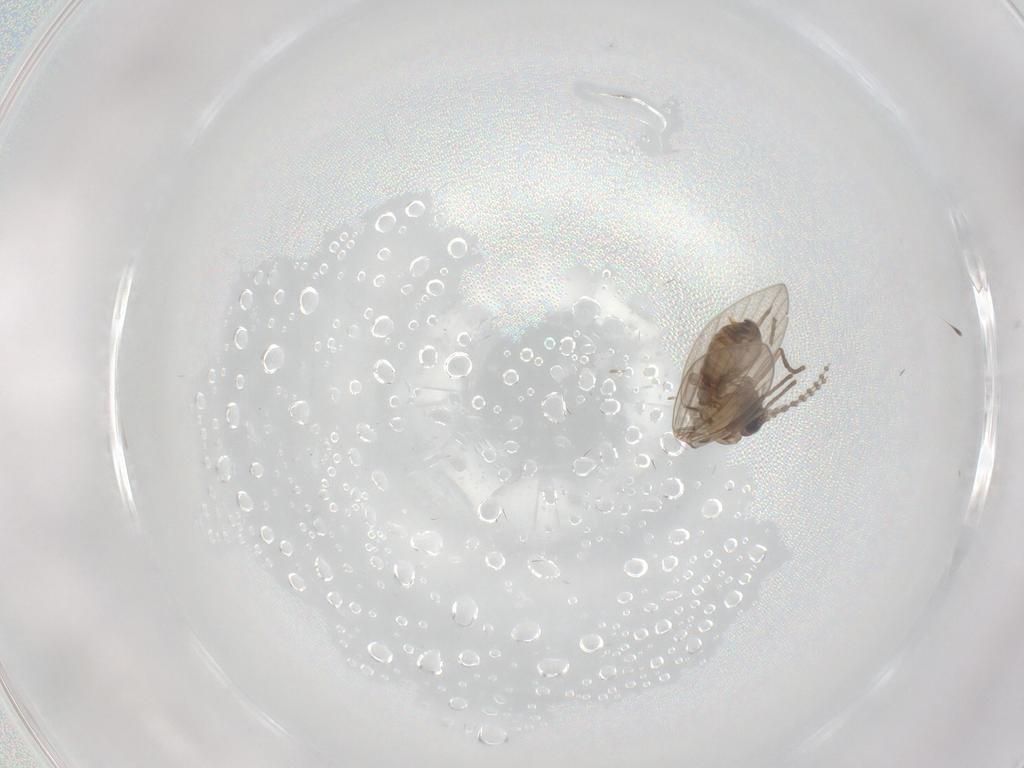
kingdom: Animalia
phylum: Arthropoda
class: Insecta
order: Diptera
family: Psychodidae
